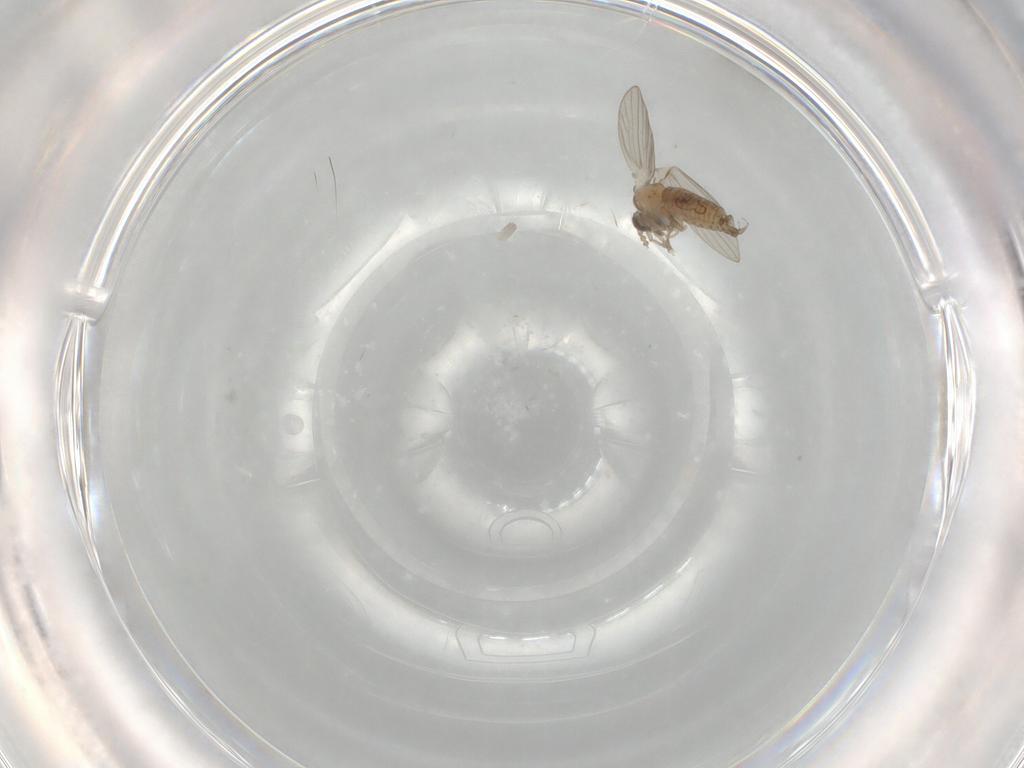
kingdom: Animalia
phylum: Arthropoda
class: Insecta
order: Diptera
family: Psychodidae
